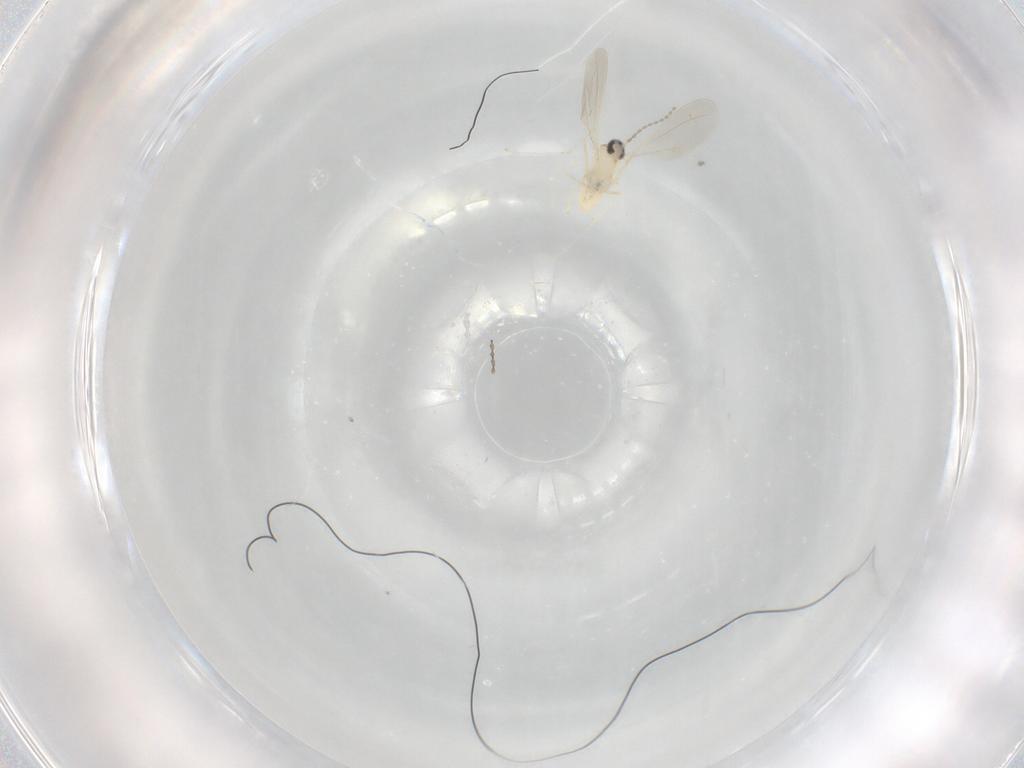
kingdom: Animalia
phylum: Arthropoda
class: Insecta
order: Diptera
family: Cecidomyiidae
